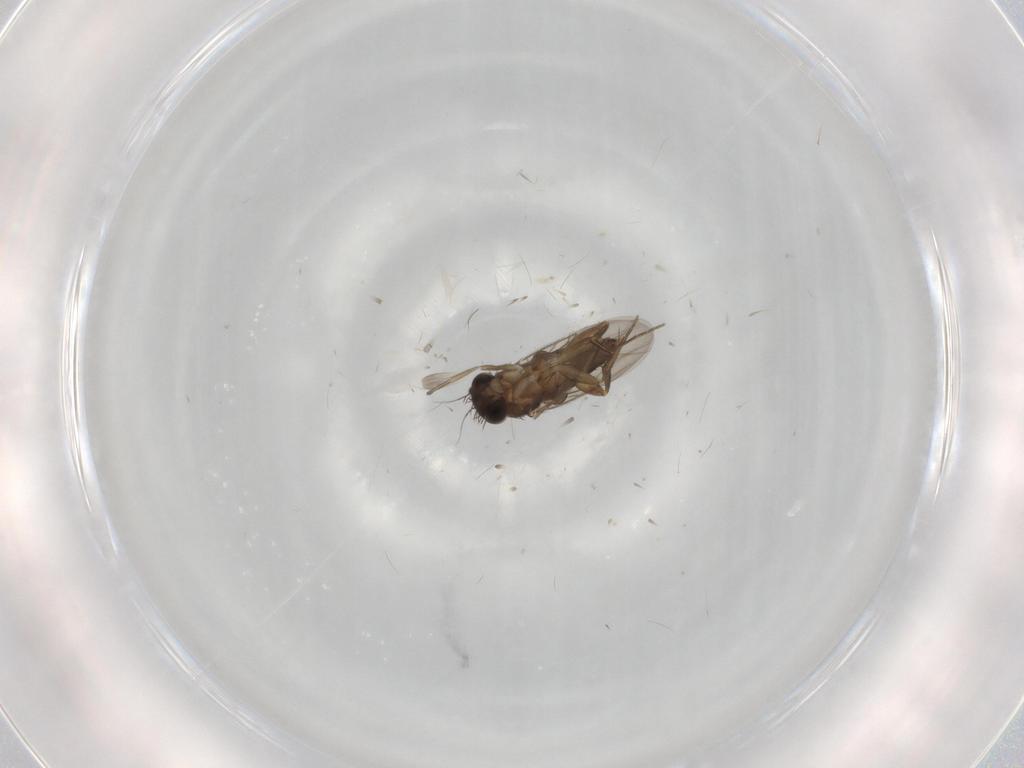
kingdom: Animalia
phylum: Arthropoda
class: Insecta
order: Diptera
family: Phoridae
